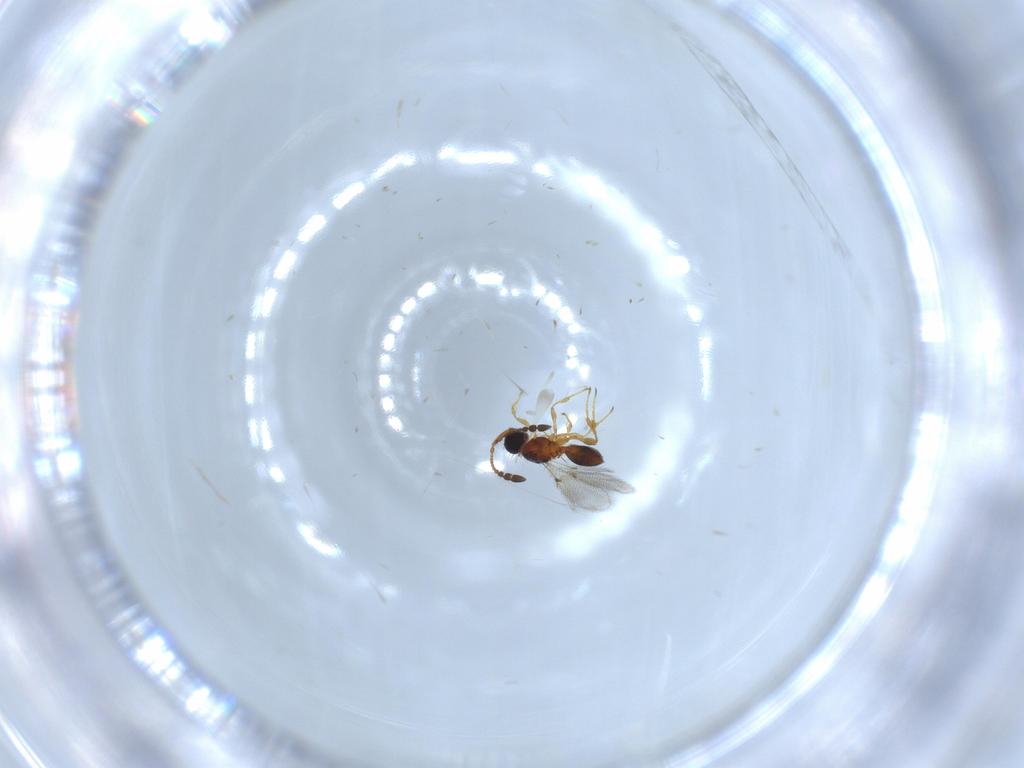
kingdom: Animalia
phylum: Arthropoda
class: Insecta
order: Hymenoptera
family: Diapriidae
